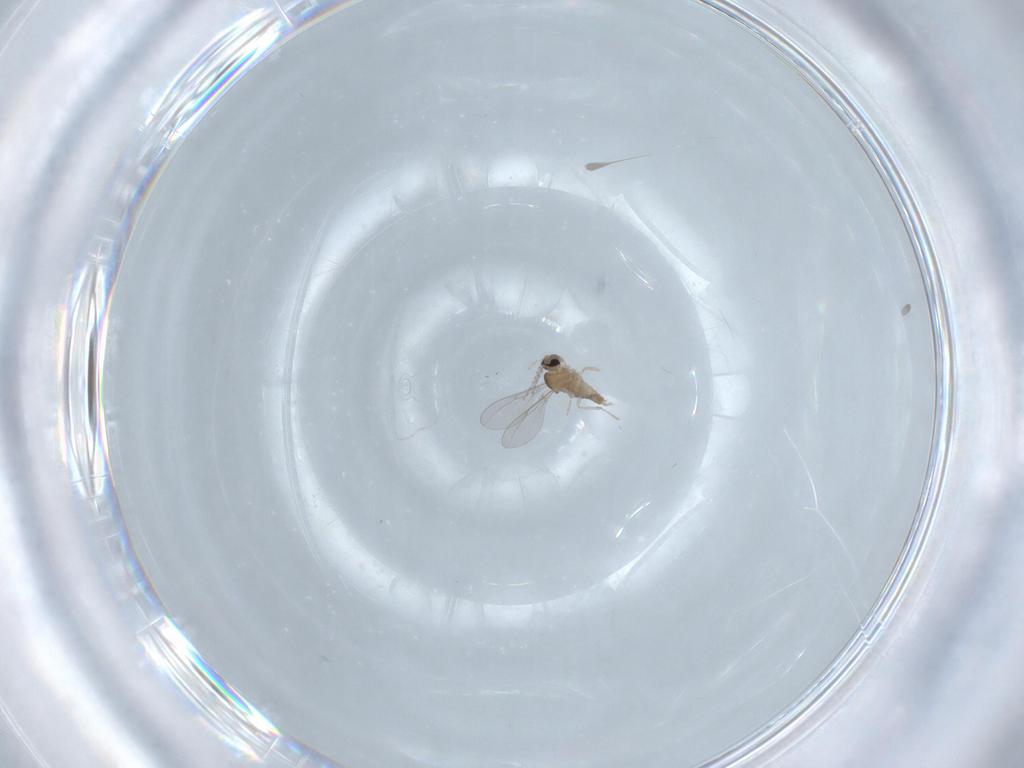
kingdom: Animalia
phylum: Arthropoda
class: Insecta
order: Diptera
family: Cecidomyiidae
